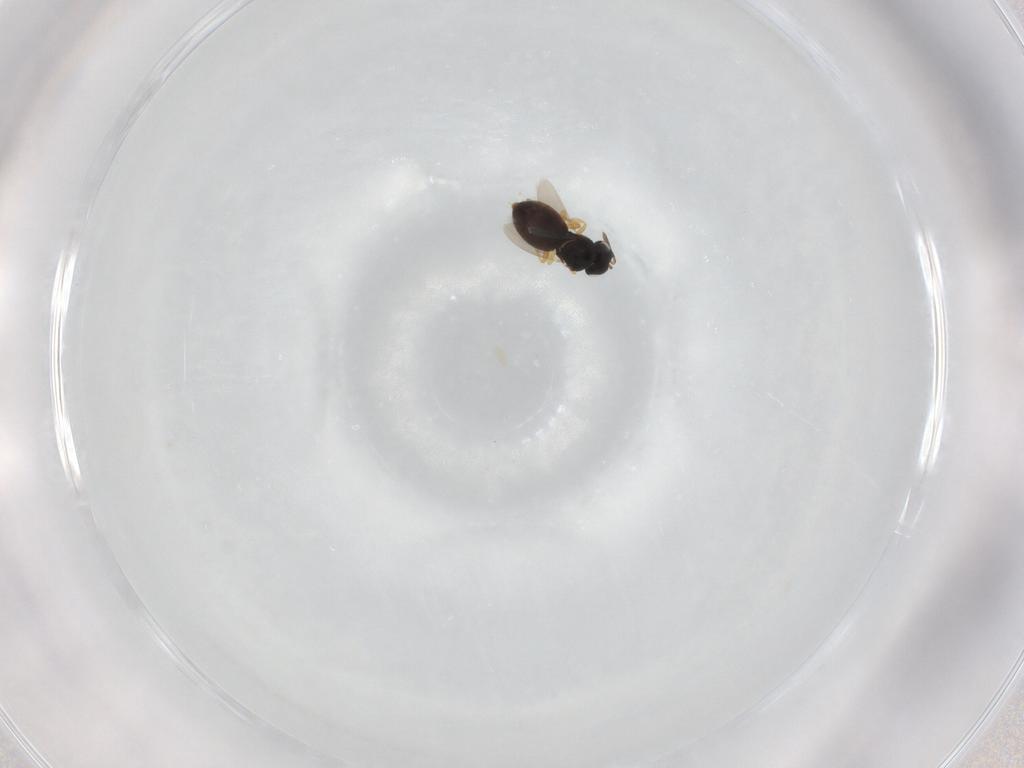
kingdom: Animalia
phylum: Arthropoda
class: Insecta
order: Hymenoptera
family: Scelionidae
